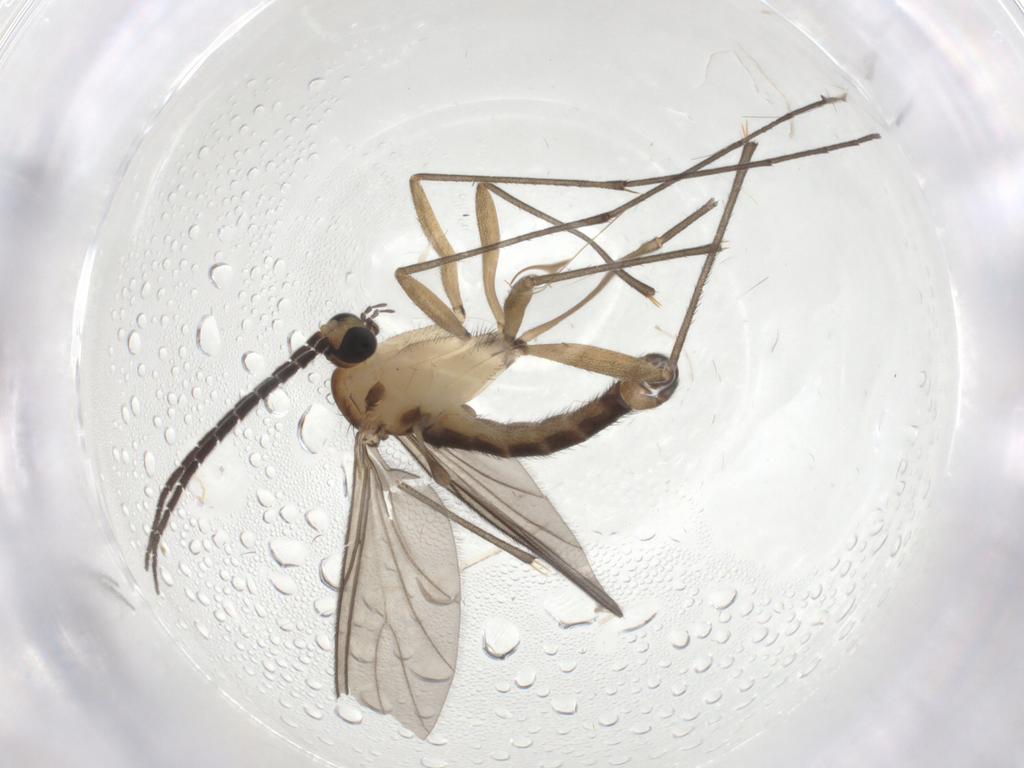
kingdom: Animalia
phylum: Arthropoda
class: Insecta
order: Diptera
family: Sciaridae
